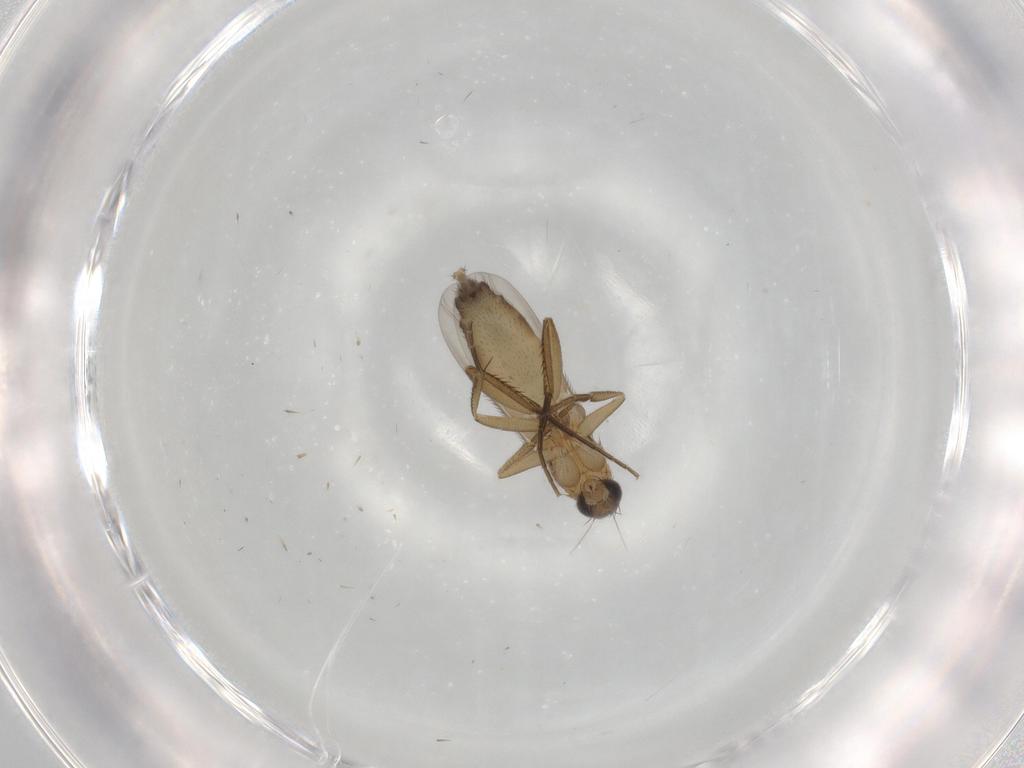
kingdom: Animalia
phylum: Arthropoda
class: Insecta
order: Diptera
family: Phoridae
